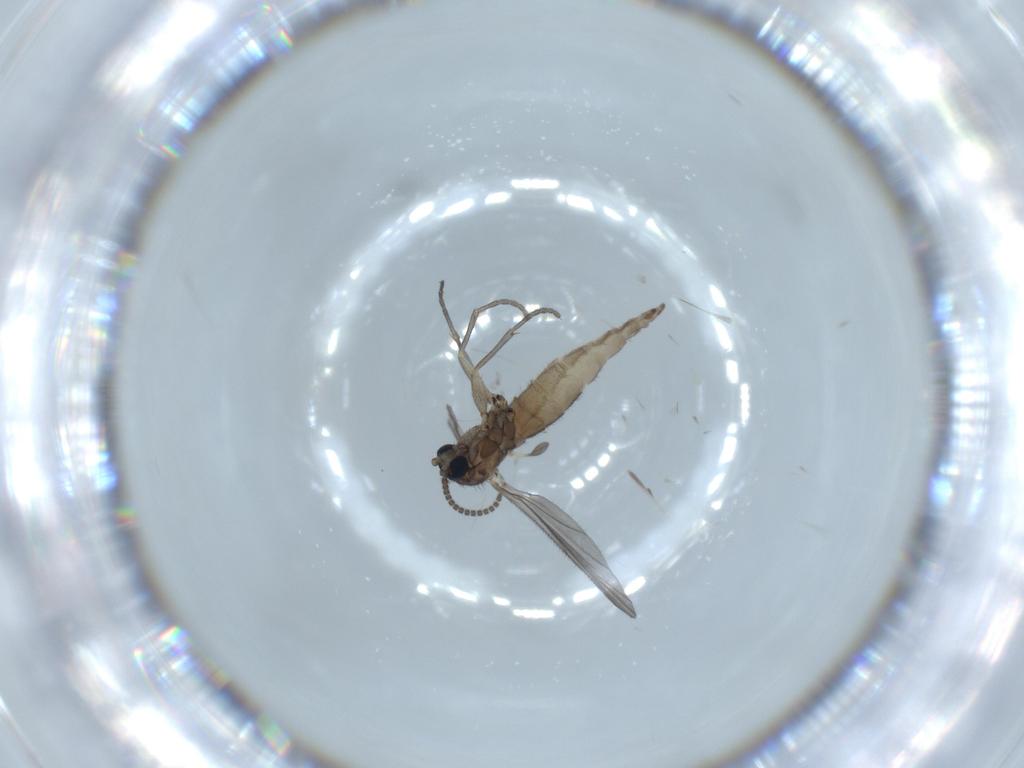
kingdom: Animalia
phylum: Arthropoda
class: Insecta
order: Diptera
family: Sciaridae
